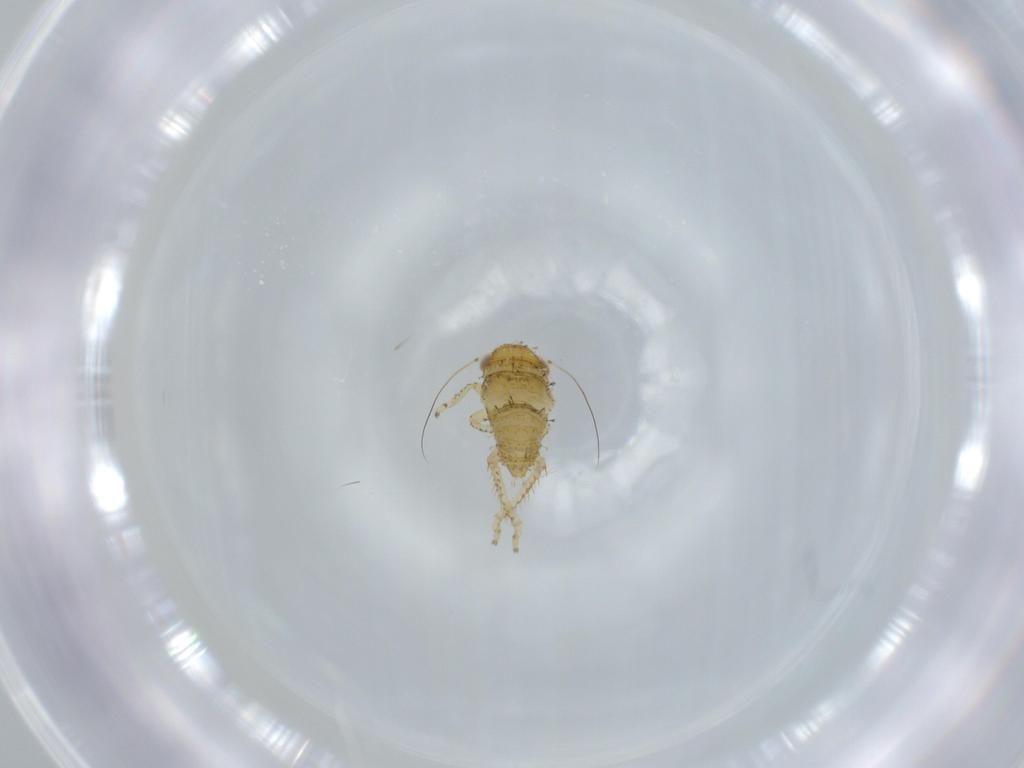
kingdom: Animalia
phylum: Arthropoda
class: Insecta
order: Hemiptera
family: Cicadellidae
